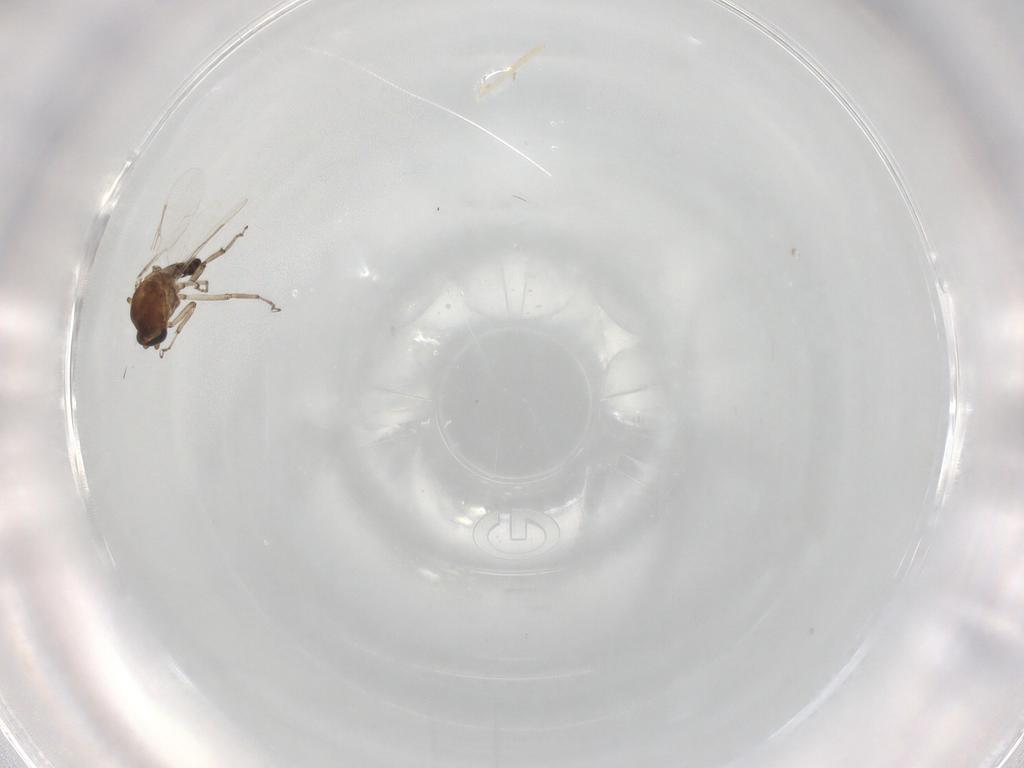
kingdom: Animalia
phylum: Arthropoda
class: Insecta
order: Diptera
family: Ceratopogonidae
